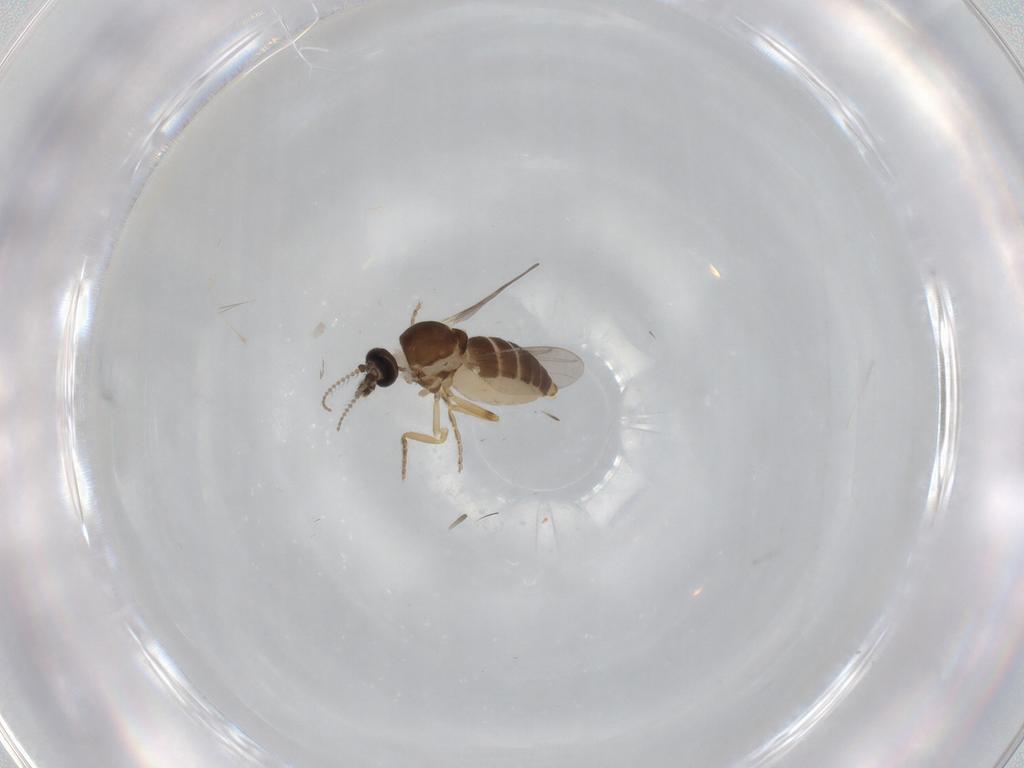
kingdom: Animalia
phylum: Arthropoda
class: Insecta
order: Diptera
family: Ceratopogonidae
